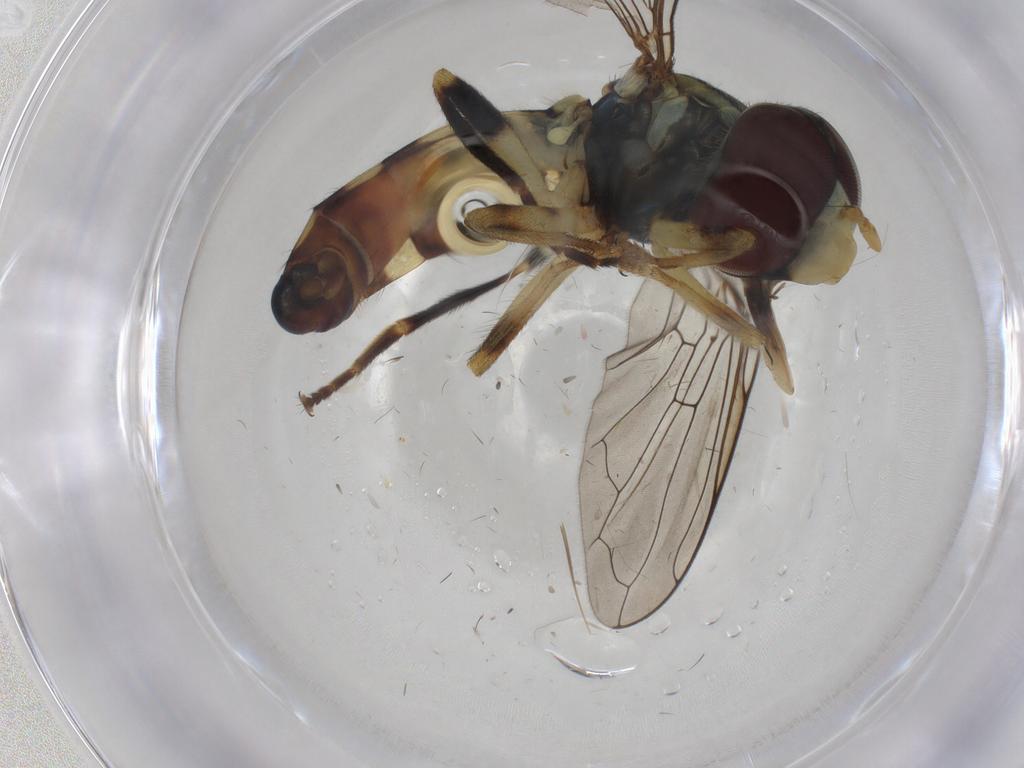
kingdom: Animalia
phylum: Arthropoda
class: Insecta
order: Diptera
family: Syrphidae
